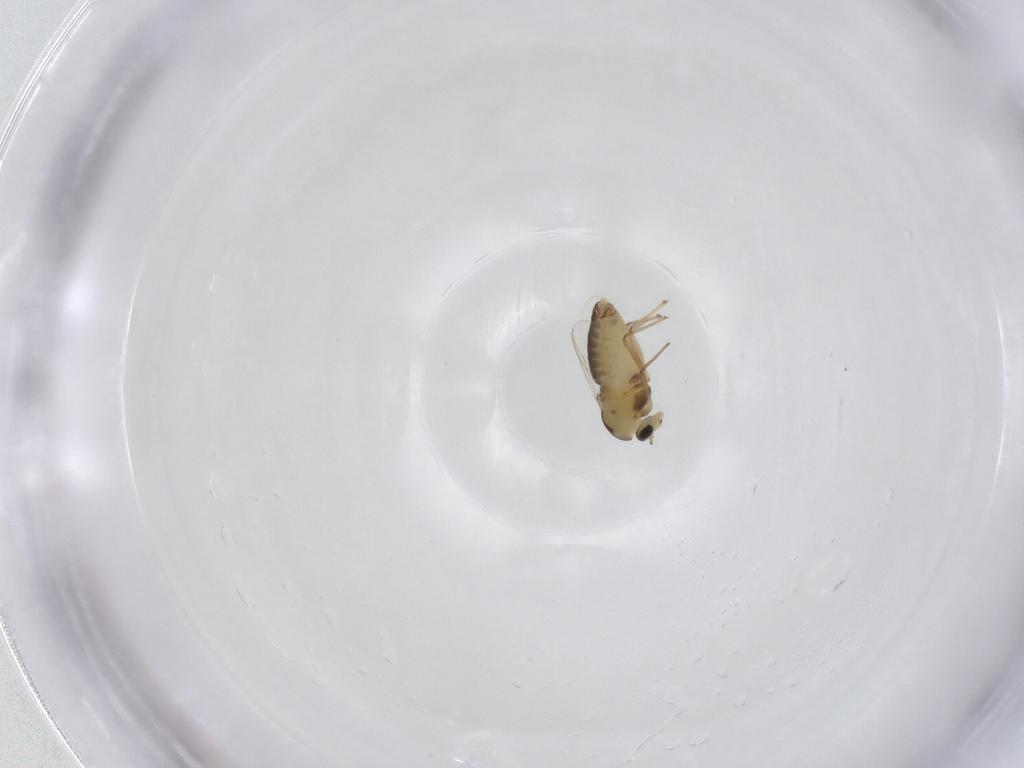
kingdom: Animalia
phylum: Arthropoda
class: Insecta
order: Diptera
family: Chironomidae
